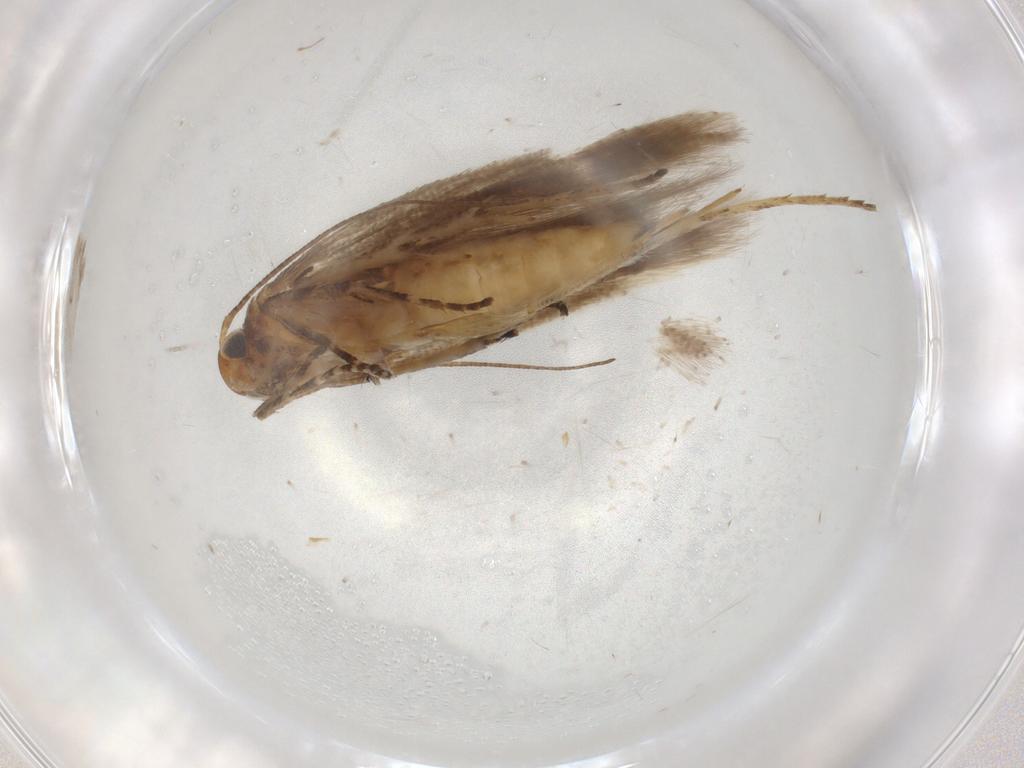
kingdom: Animalia
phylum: Arthropoda
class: Insecta
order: Lepidoptera
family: Gelechiidae
